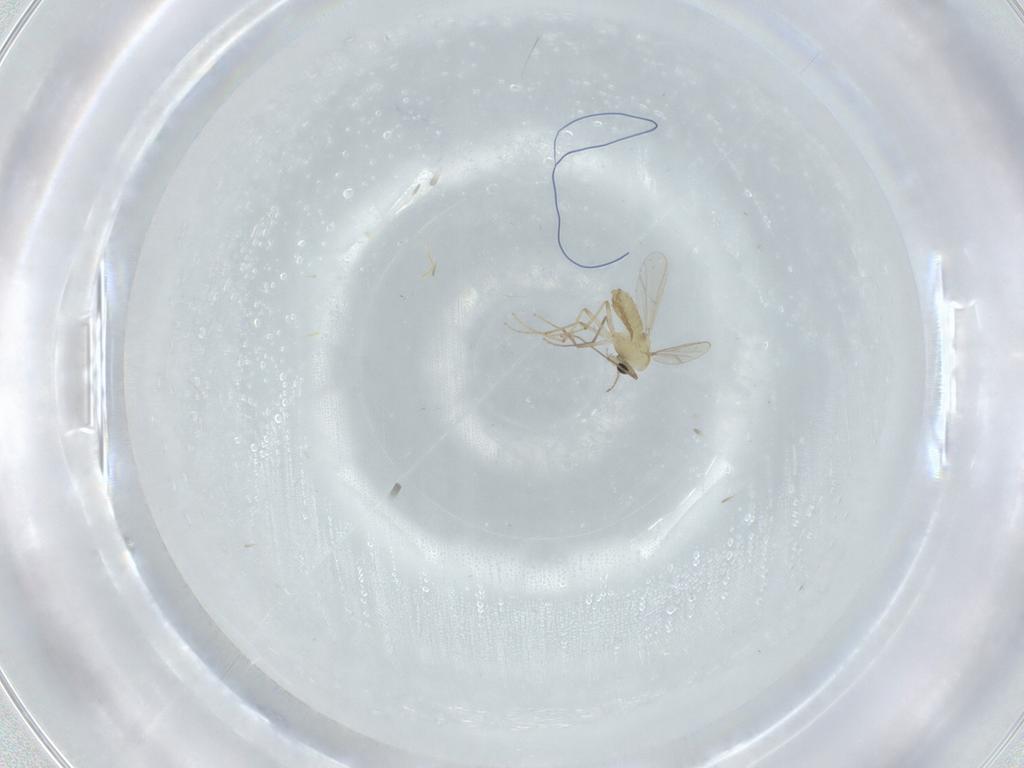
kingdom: Animalia
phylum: Arthropoda
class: Insecta
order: Diptera
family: Chironomidae
